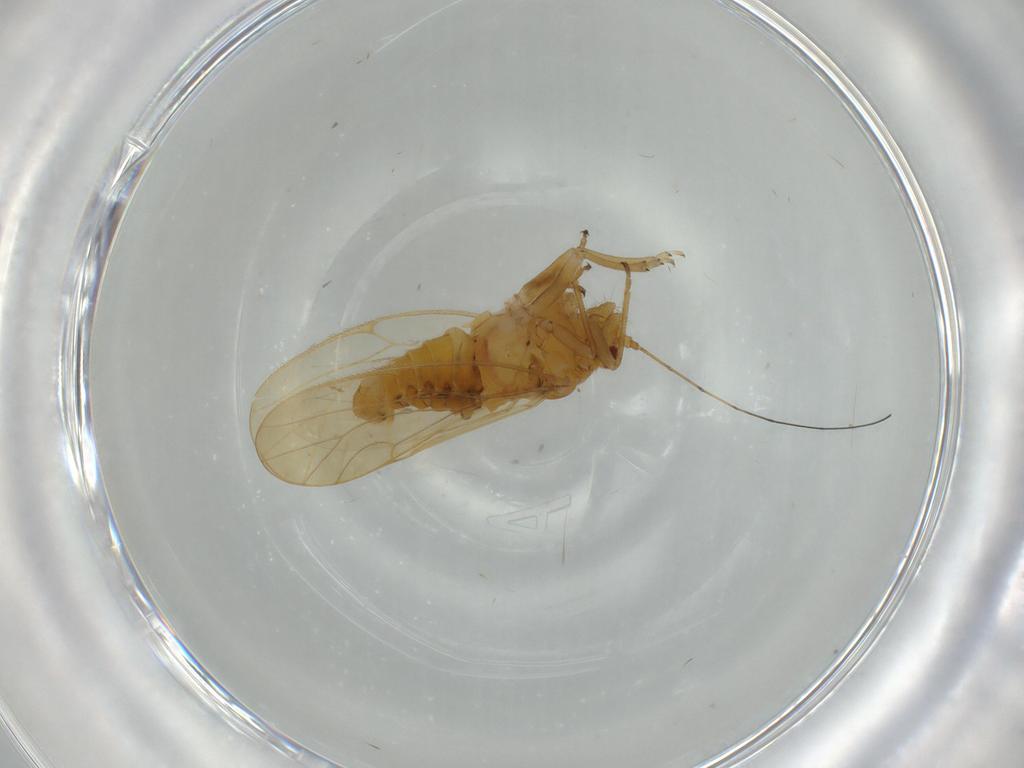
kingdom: Animalia
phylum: Arthropoda
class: Insecta
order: Hemiptera
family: Psyllidae
